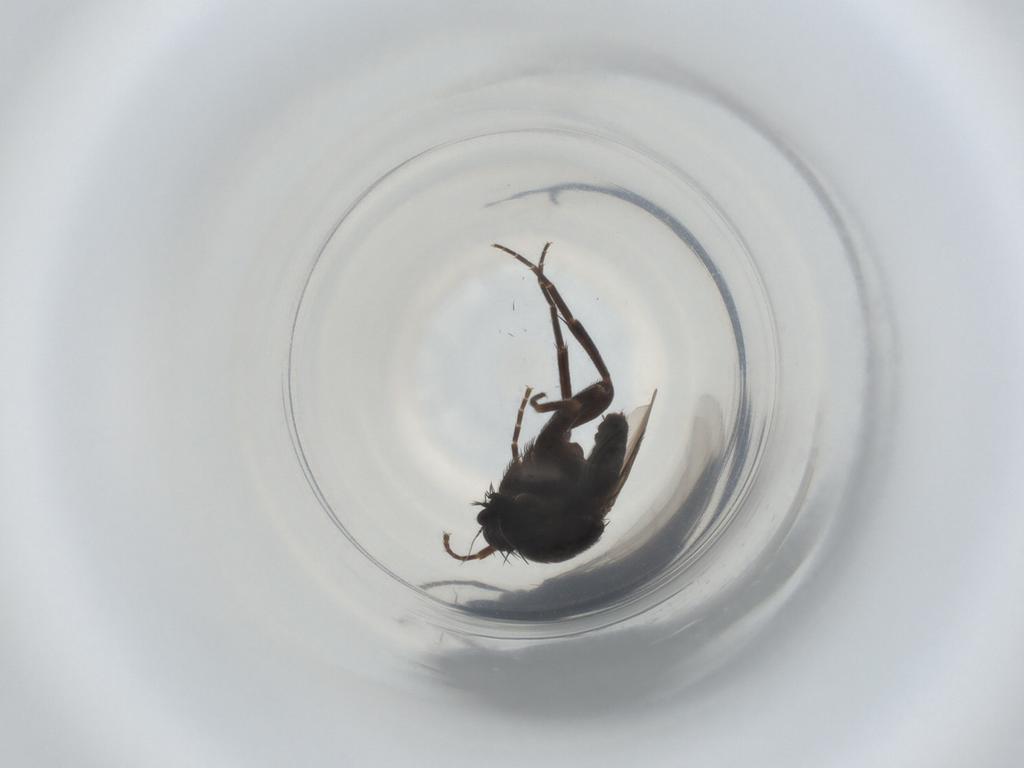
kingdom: Animalia
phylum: Arthropoda
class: Insecta
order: Diptera
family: Phoridae
